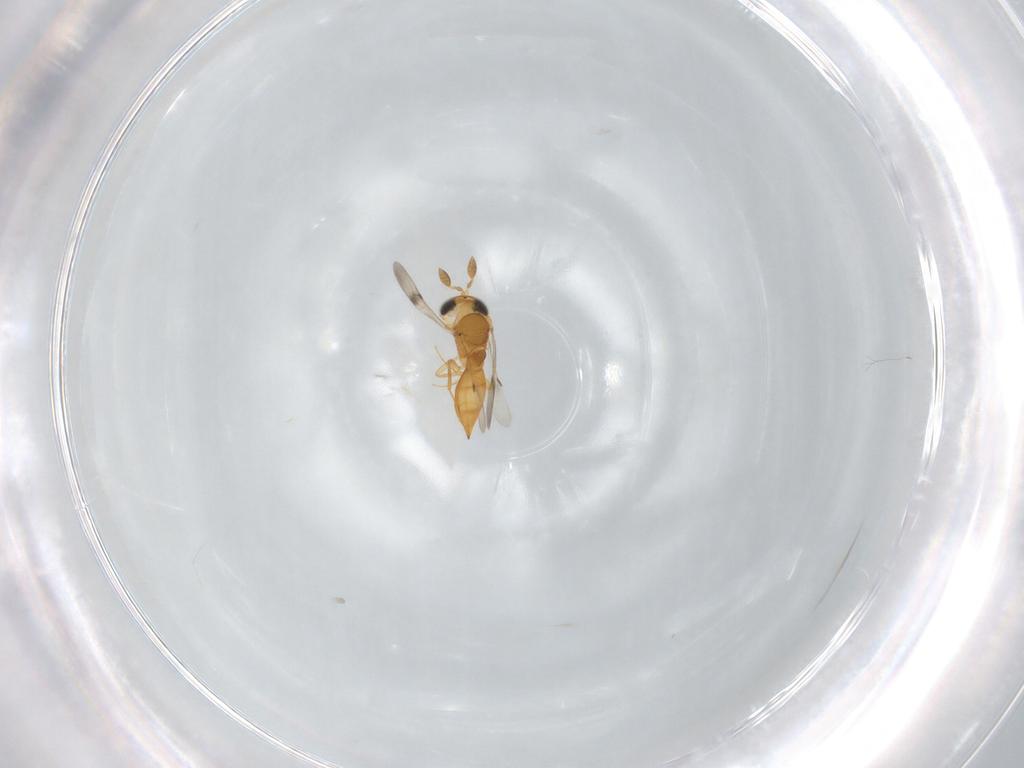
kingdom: Animalia
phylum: Arthropoda
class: Insecta
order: Hymenoptera
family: Scelionidae
